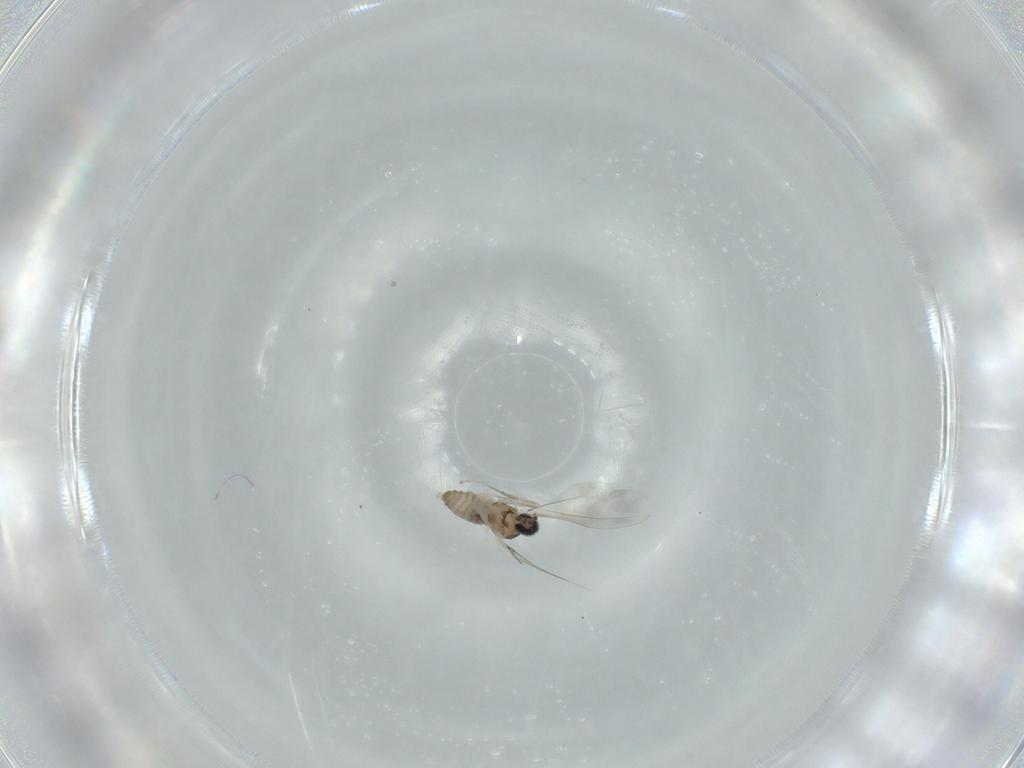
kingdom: Animalia
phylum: Arthropoda
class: Insecta
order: Diptera
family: Cecidomyiidae
